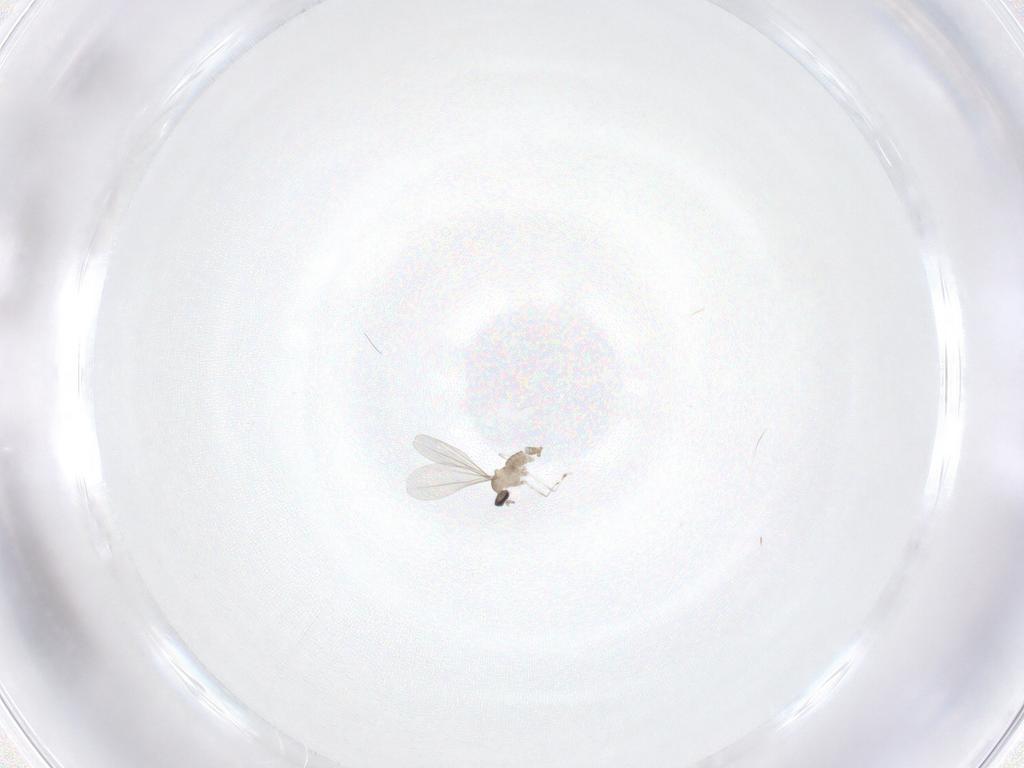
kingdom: Animalia
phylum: Arthropoda
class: Insecta
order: Diptera
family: Cecidomyiidae
